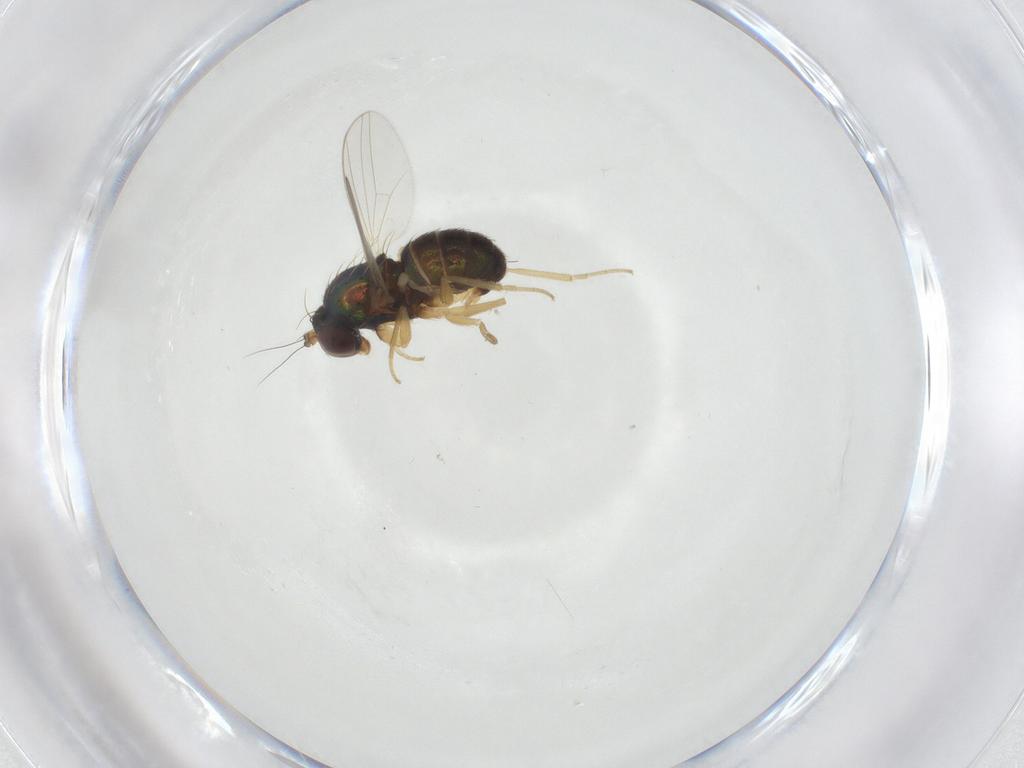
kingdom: Animalia
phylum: Arthropoda
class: Insecta
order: Diptera
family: Dolichopodidae
